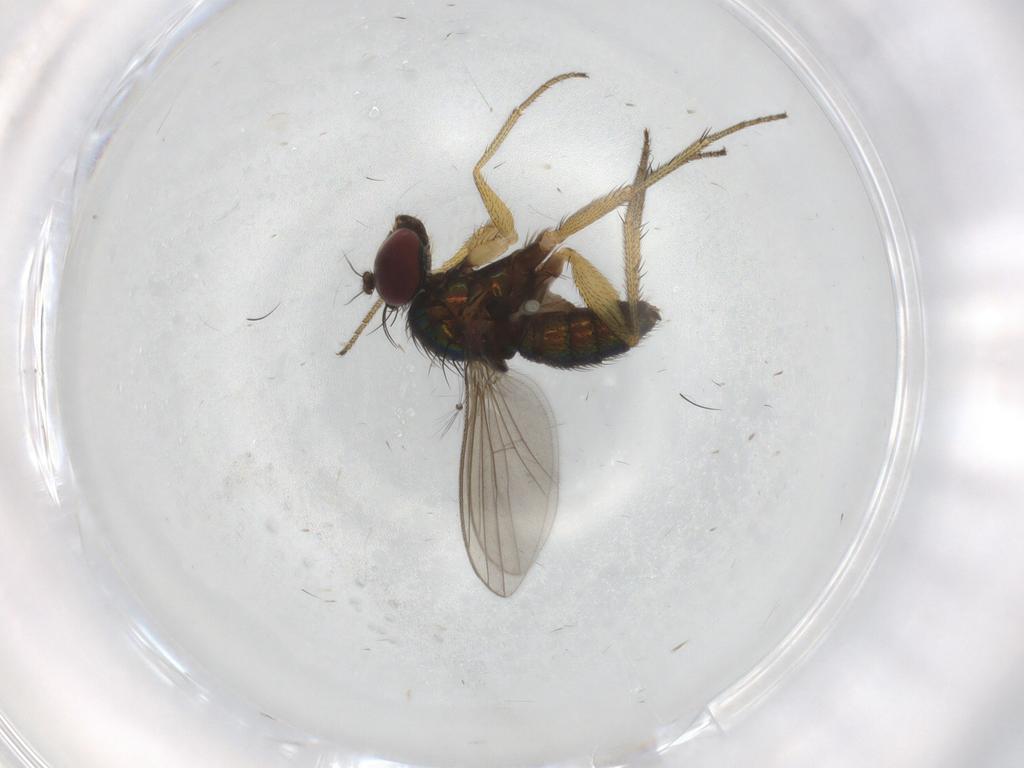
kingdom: Animalia
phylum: Arthropoda
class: Insecta
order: Diptera
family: Dolichopodidae
